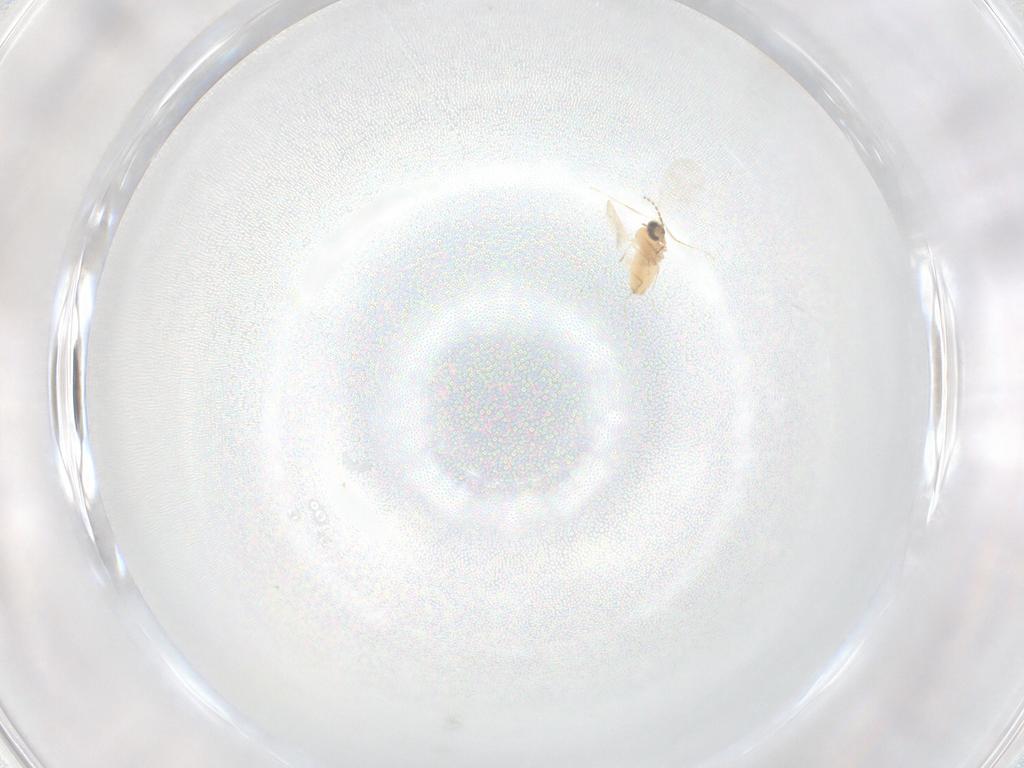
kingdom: Animalia
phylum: Arthropoda
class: Insecta
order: Diptera
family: Cecidomyiidae
